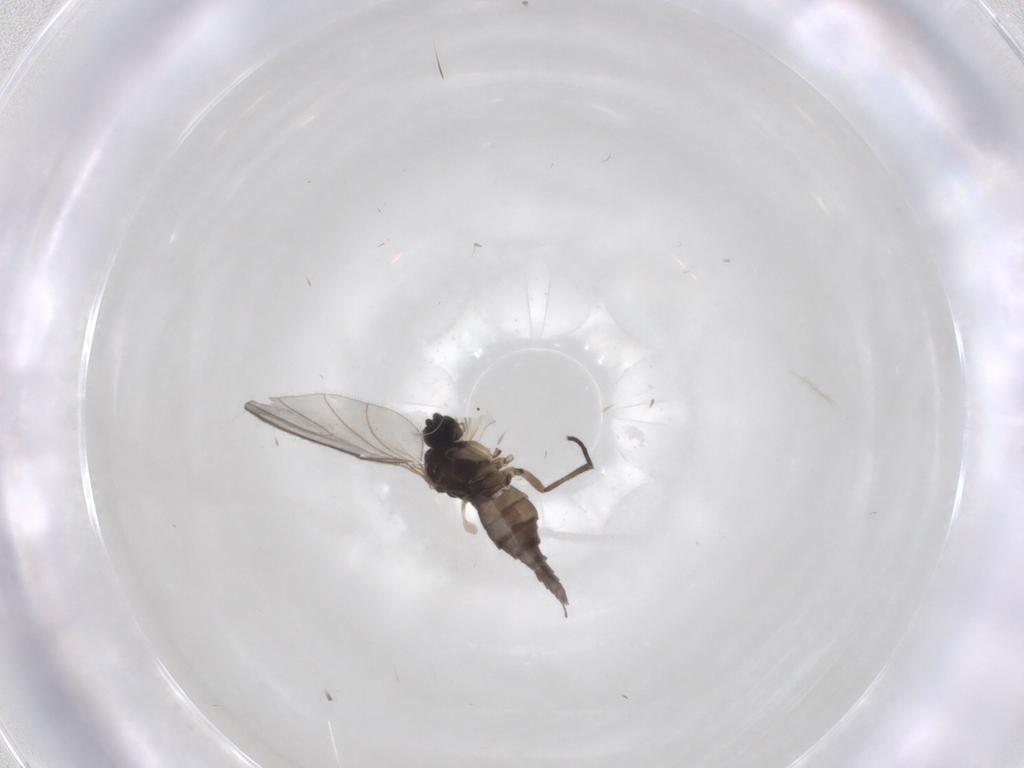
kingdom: Animalia
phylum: Arthropoda
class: Insecta
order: Diptera
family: Sciaridae
